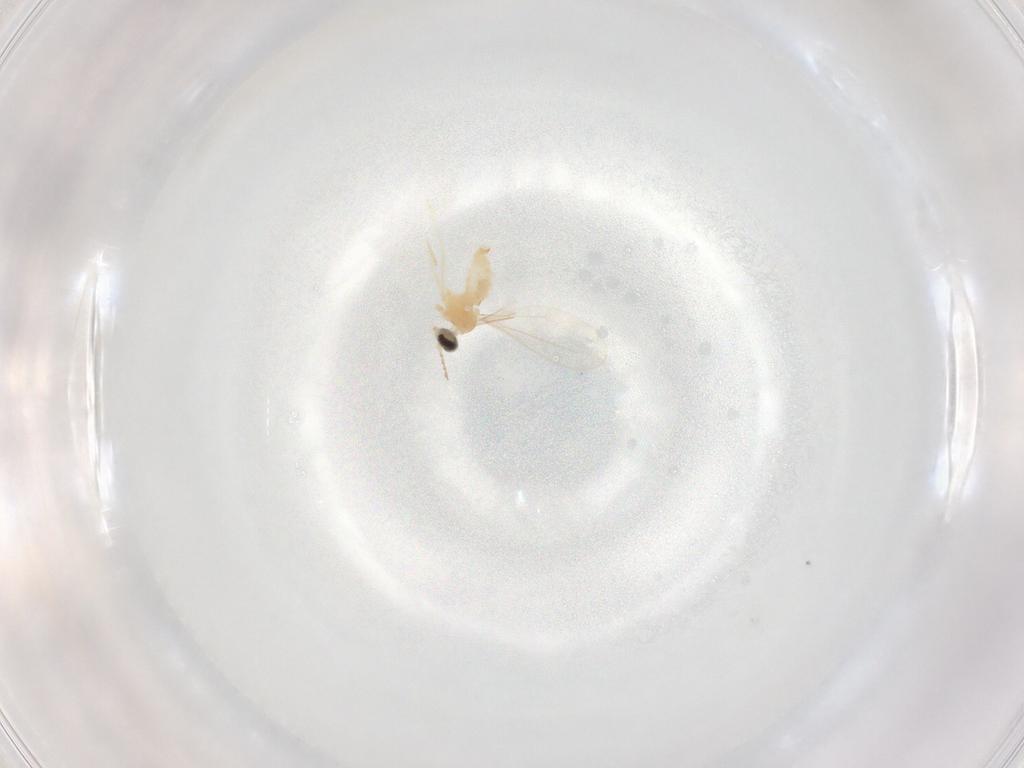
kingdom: Animalia
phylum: Arthropoda
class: Insecta
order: Diptera
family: Cecidomyiidae
